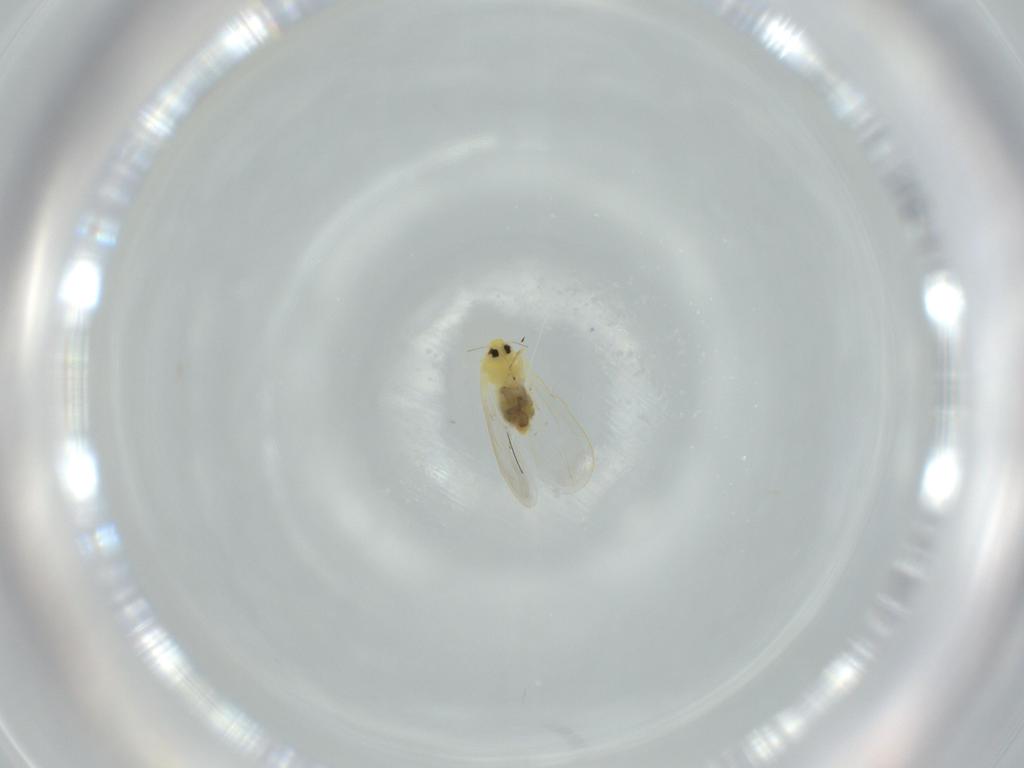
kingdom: Animalia
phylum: Arthropoda
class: Insecta
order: Hemiptera
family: Aleyrodidae
